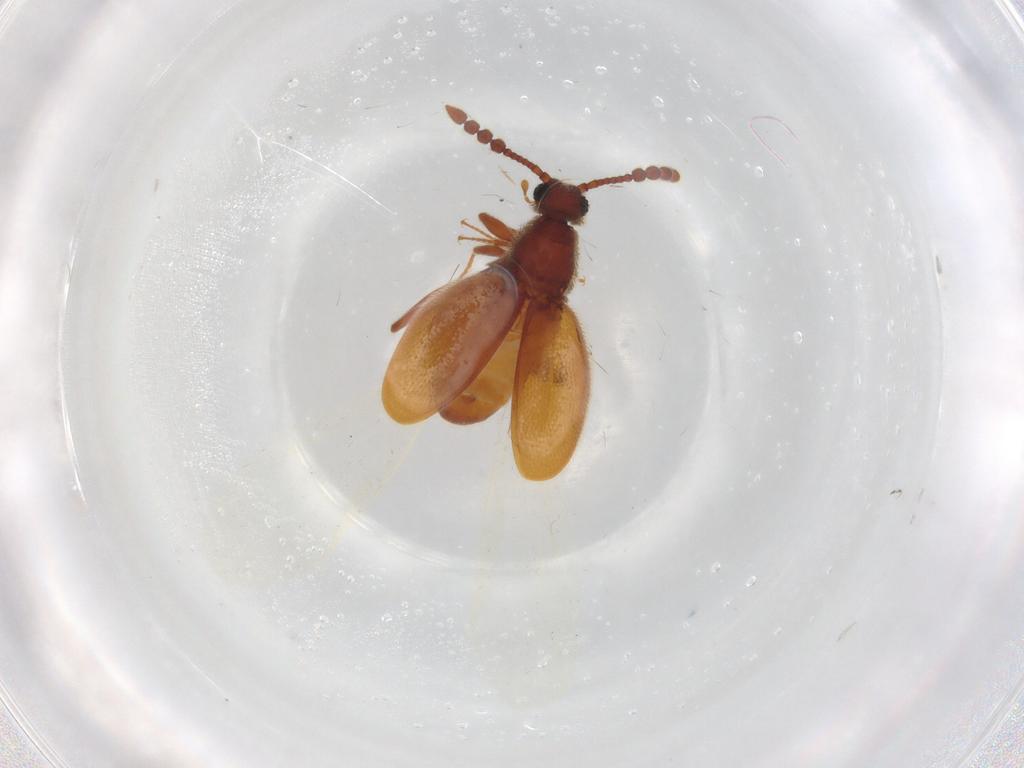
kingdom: Animalia
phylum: Arthropoda
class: Insecta
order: Coleoptera
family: Staphylinidae
